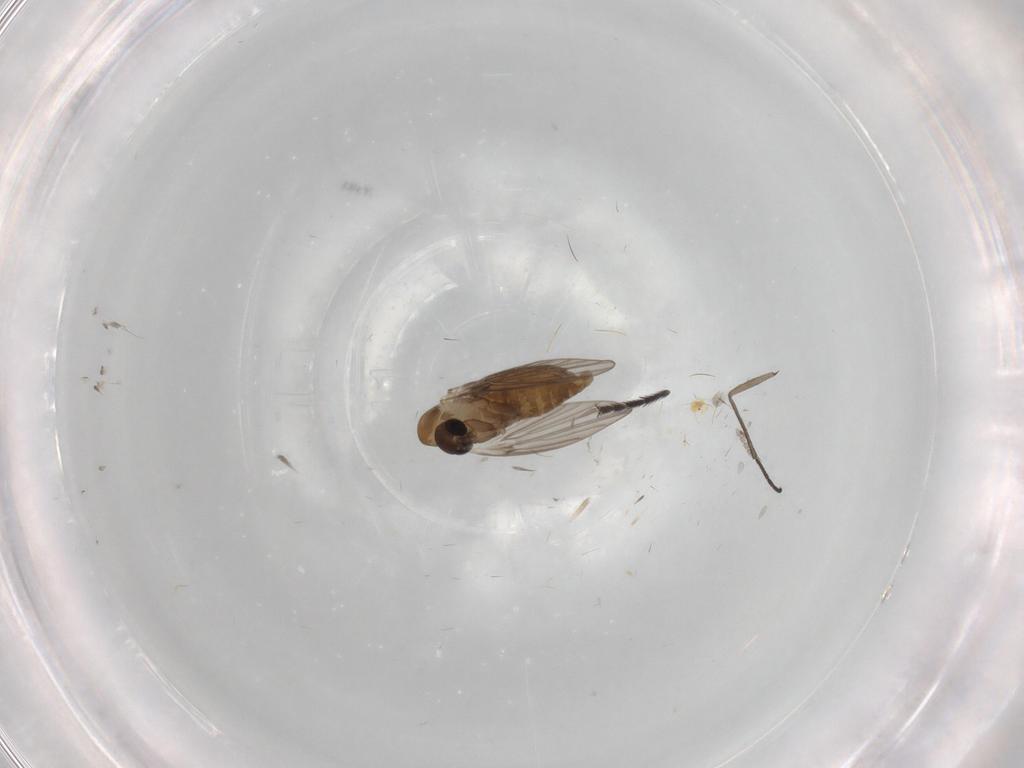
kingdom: Animalia
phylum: Arthropoda
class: Insecta
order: Diptera
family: Psychodidae
